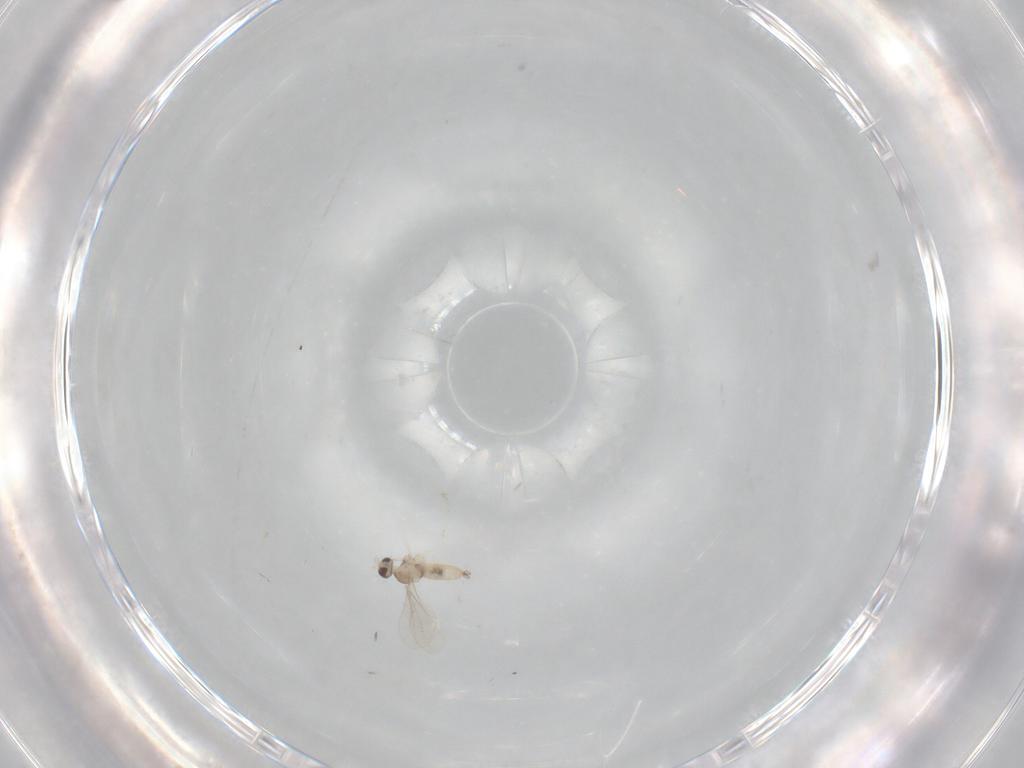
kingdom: Animalia
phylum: Arthropoda
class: Insecta
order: Diptera
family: Cecidomyiidae
